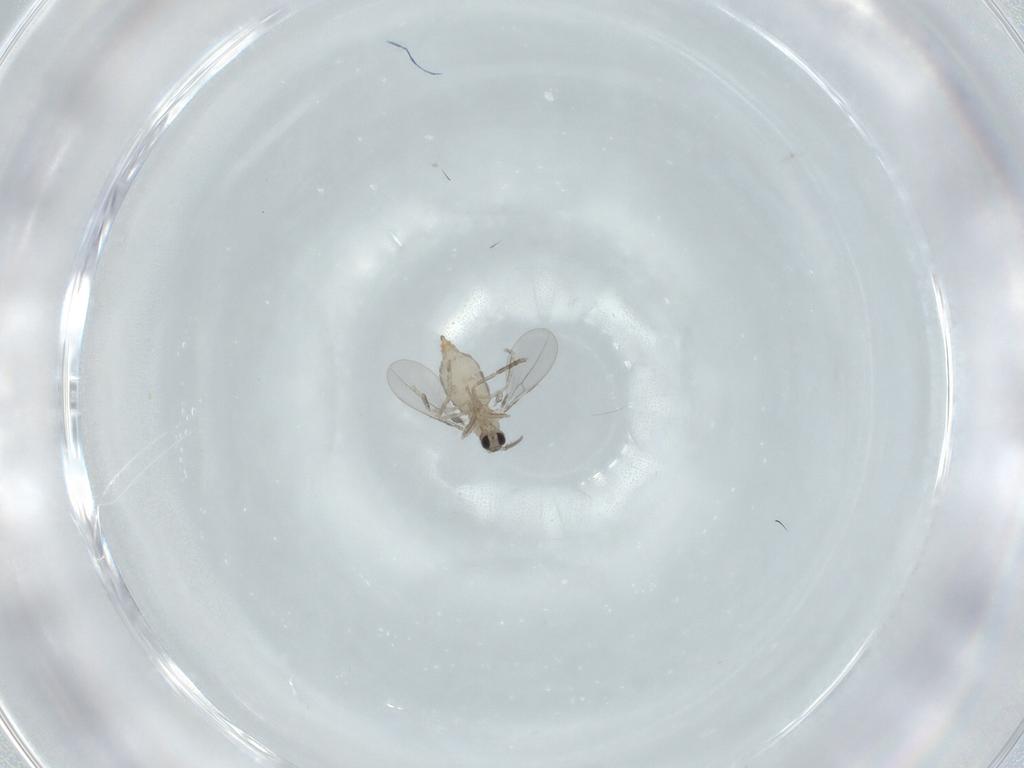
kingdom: Animalia
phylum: Arthropoda
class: Insecta
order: Diptera
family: Cecidomyiidae
